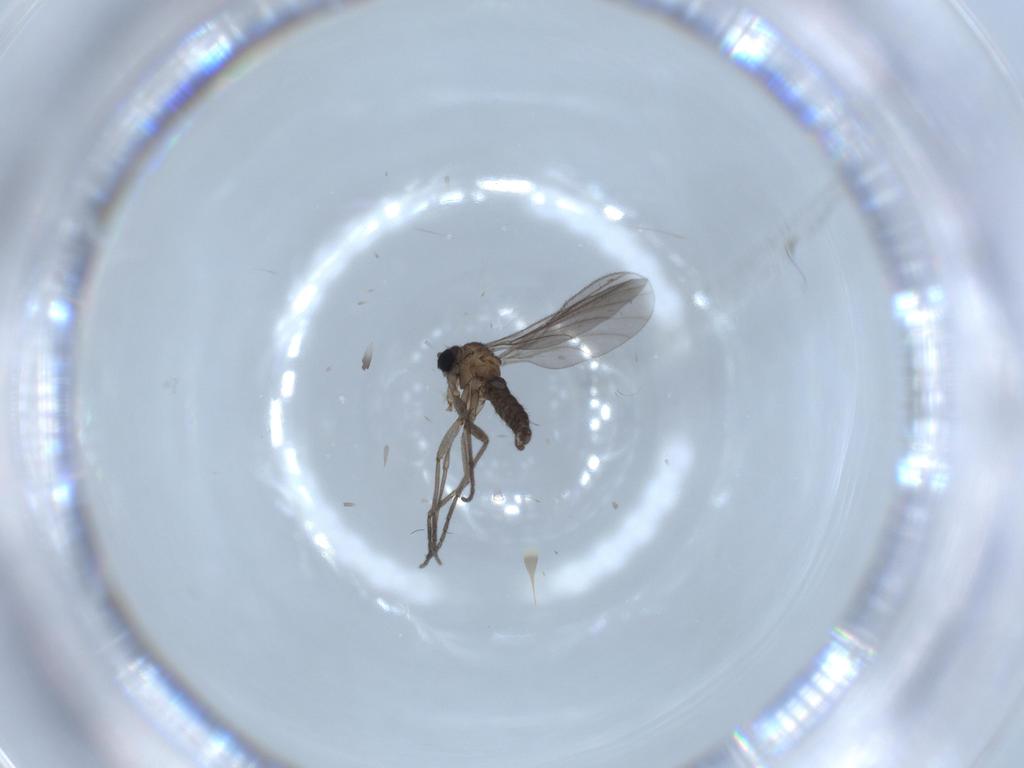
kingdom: Animalia
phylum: Arthropoda
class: Insecta
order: Diptera
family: Sciaridae
